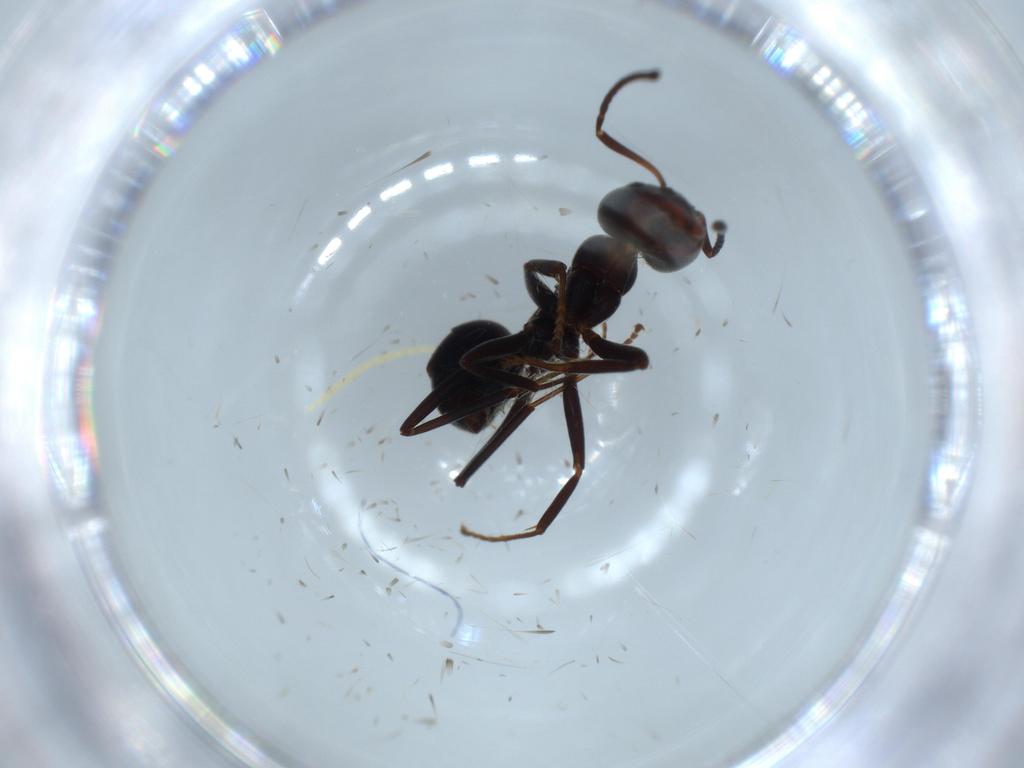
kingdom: Animalia
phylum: Arthropoda
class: Insecta
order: Hymenoptera
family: Formicidae
